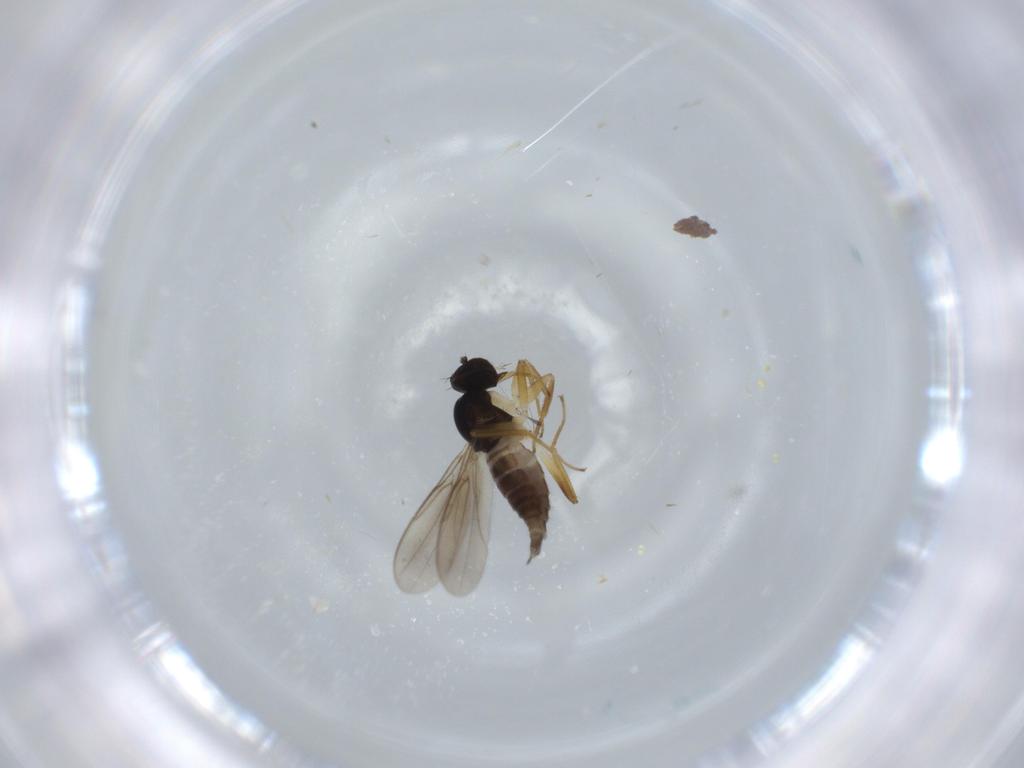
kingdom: Animalia
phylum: Arthropoda
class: Insecta
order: Diptera
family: Hybotidae
